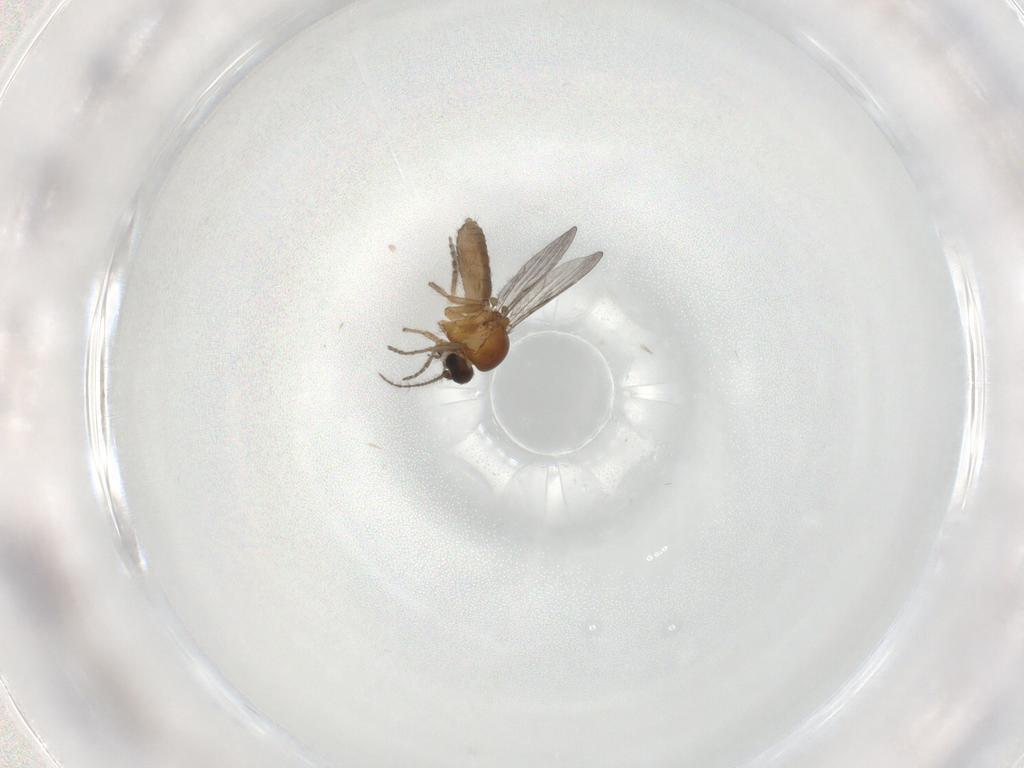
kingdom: Animalia
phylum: Arthropoda
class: Insecta
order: Diptera
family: Ceratopogonidae
